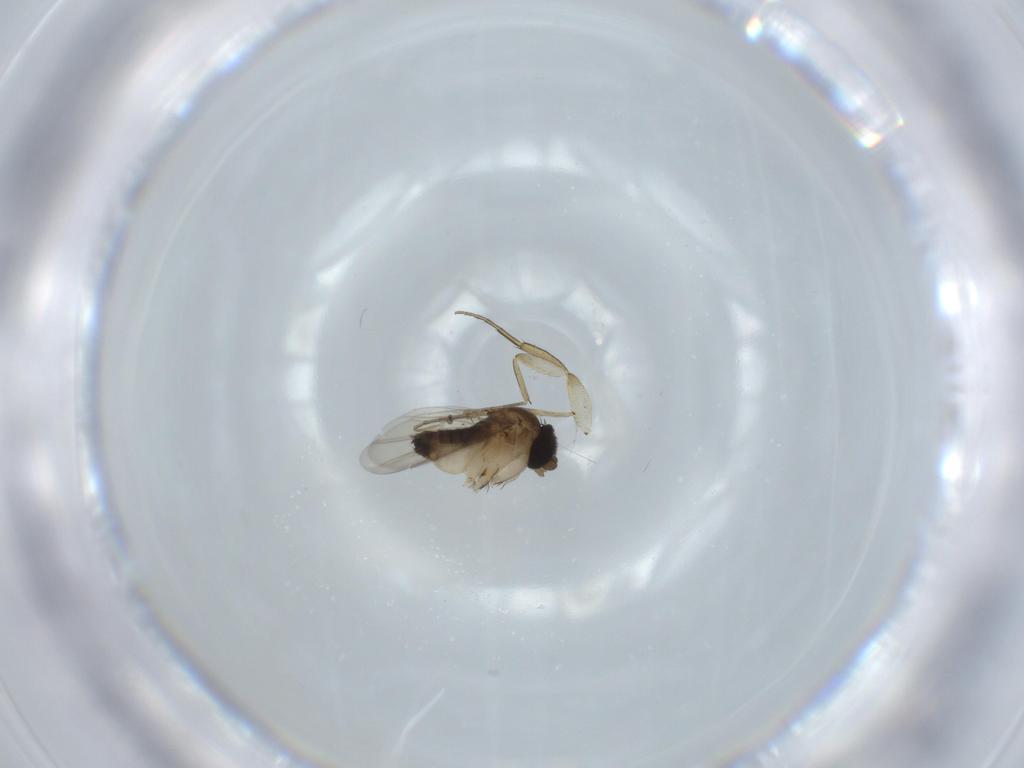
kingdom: Animalia
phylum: Arthropoda
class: Insecta
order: Diptera
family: Phoridae
